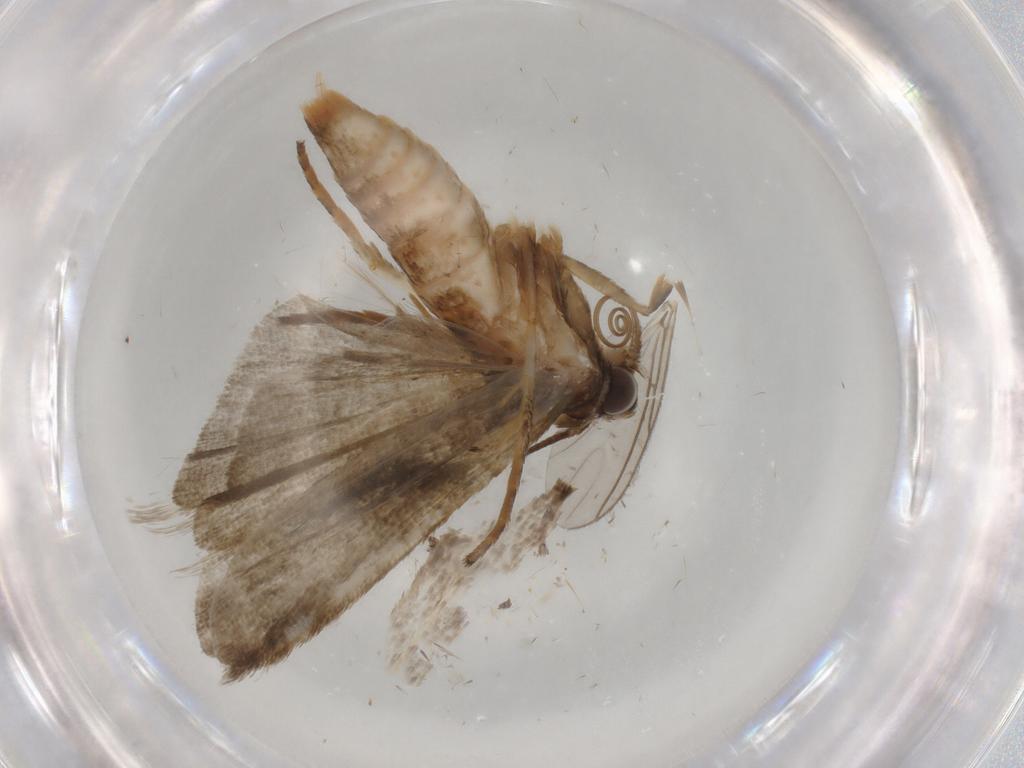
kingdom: Animalia
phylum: Arthropoda
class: Insecta
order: Lepidoptera
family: Noctuidae
